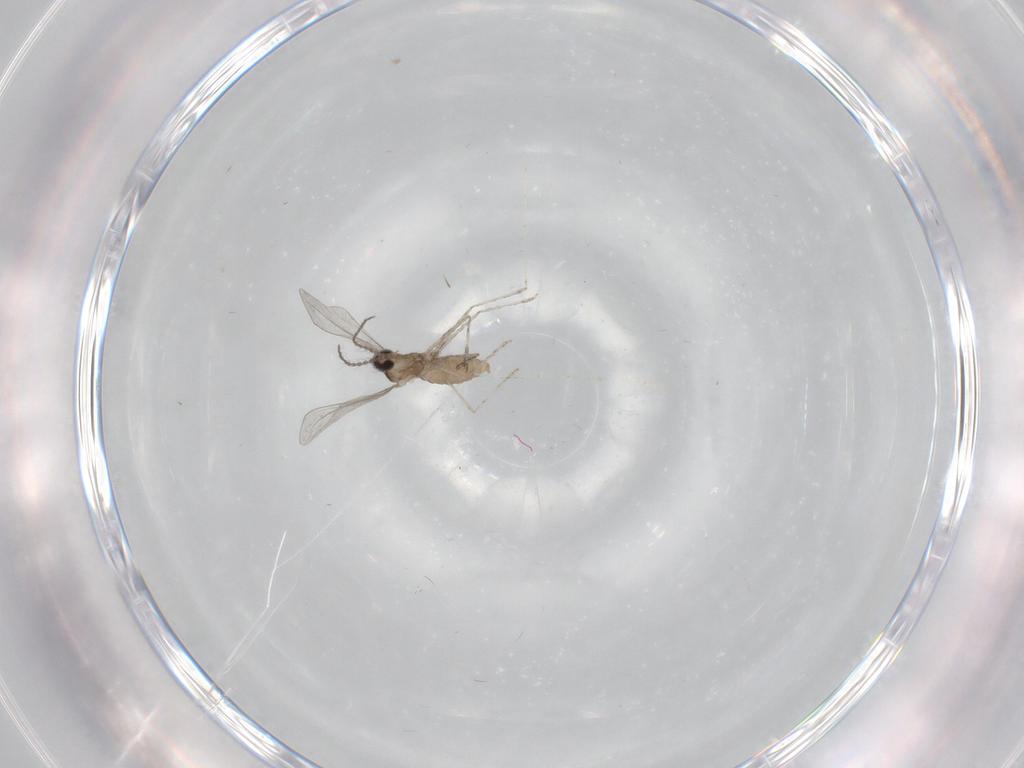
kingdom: Animalia
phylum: Arthropoda
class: Insecta
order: Diptera
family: Cecidomyiidae
